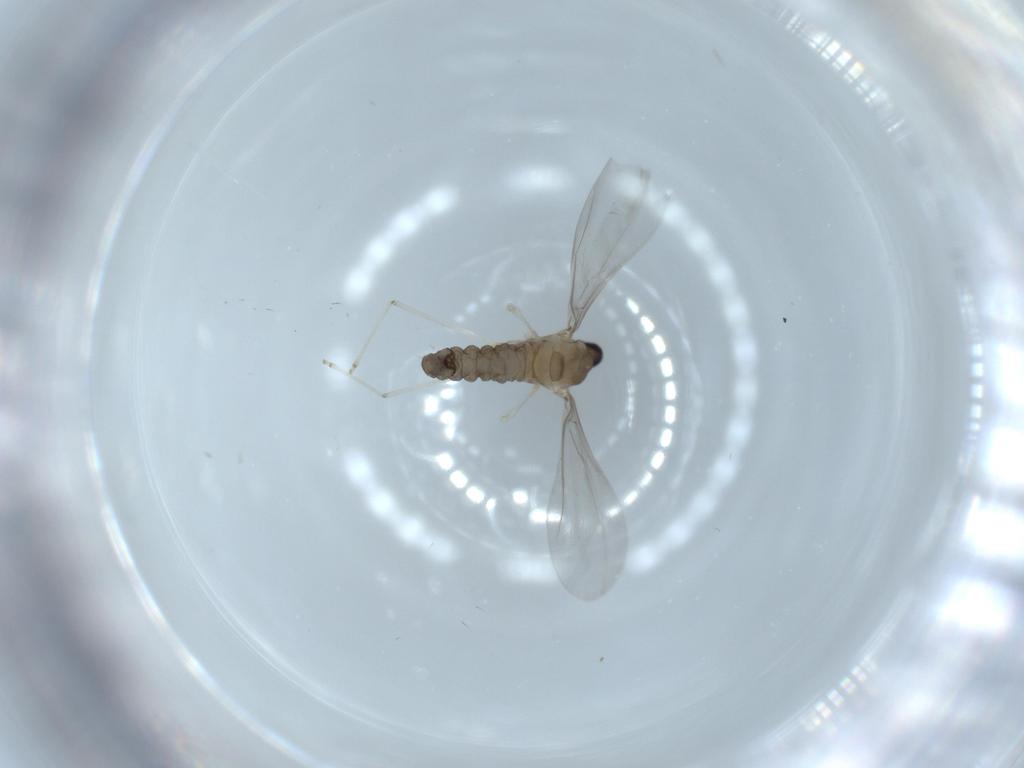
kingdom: Animalia
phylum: Arthropoda
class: Insecta
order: Diptera
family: Cecidomyiidae
